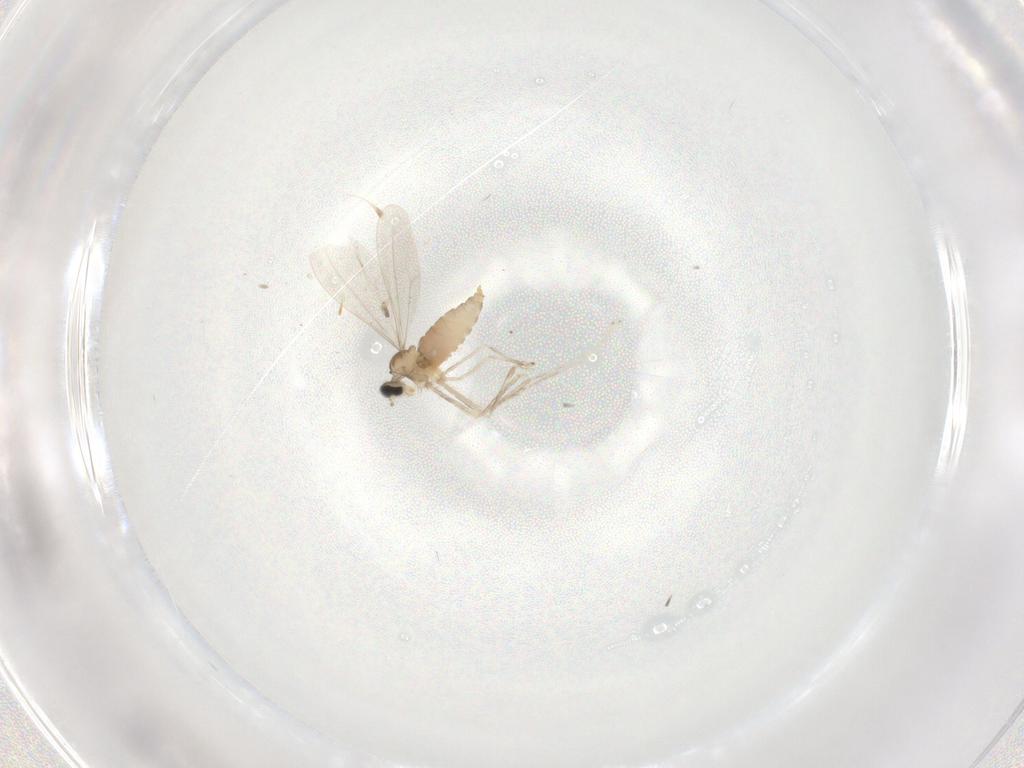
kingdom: Animalia
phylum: Arthropoda
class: Insecta
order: Diptera
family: Cecidomyiidae
